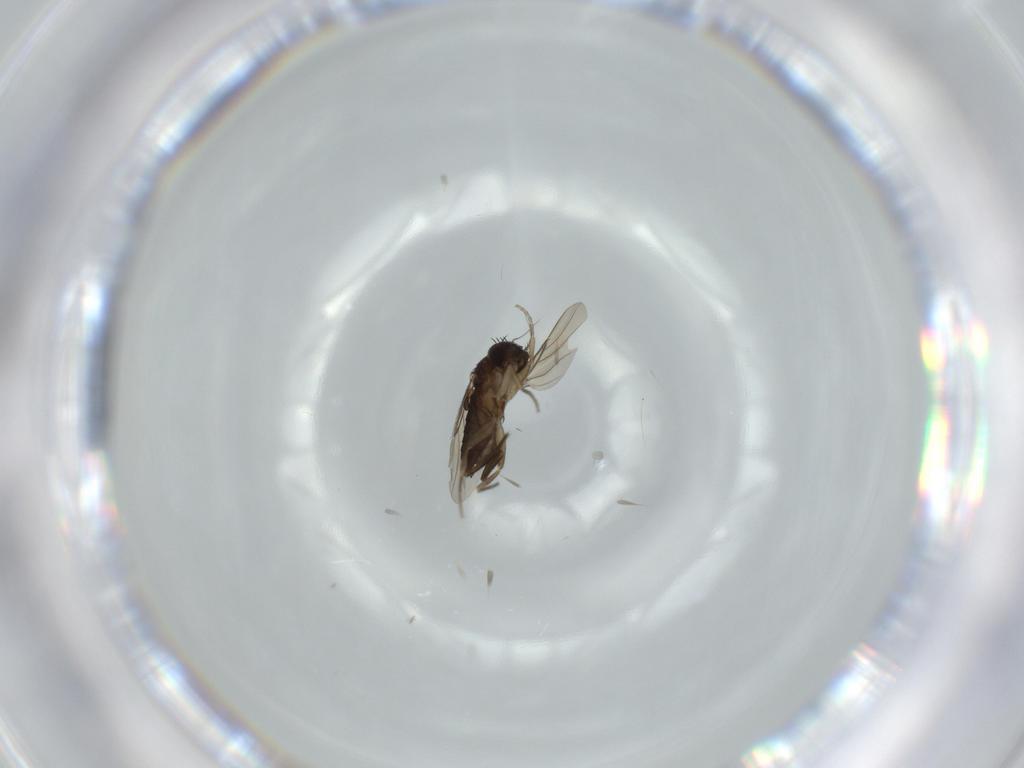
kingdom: Animalia
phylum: Arthropoda
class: Insecta
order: Diptera
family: Phoridae
